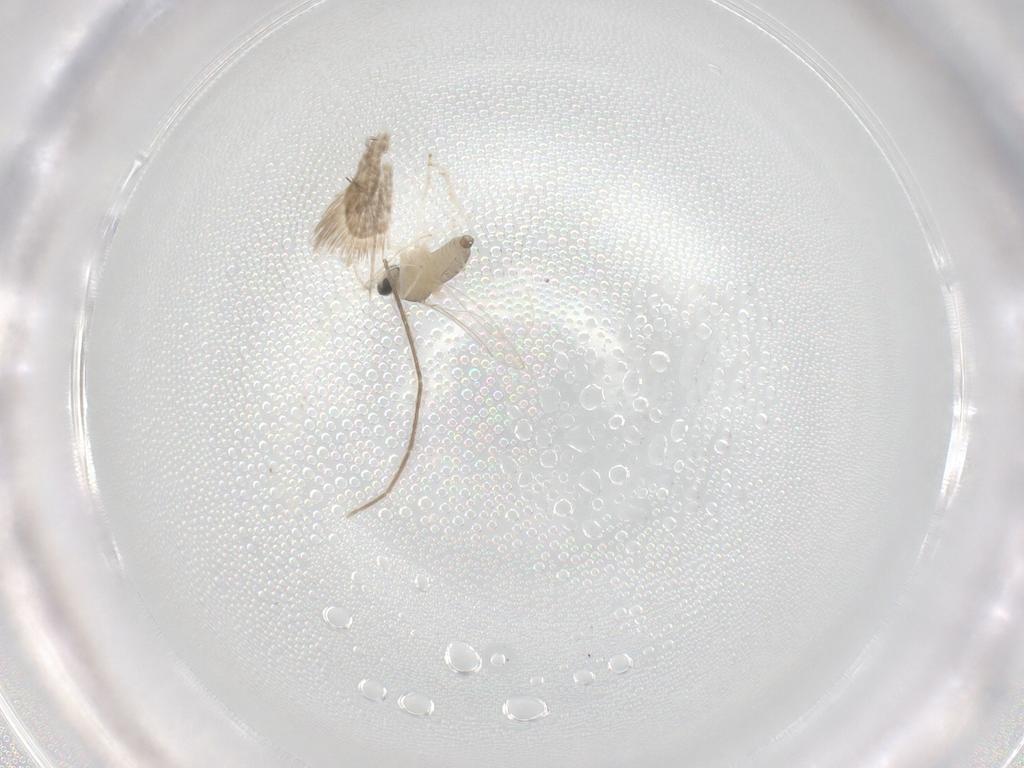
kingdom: Animalia
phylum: Arthropoda
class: Insecta
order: Diptera
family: Cecidomyiidae
